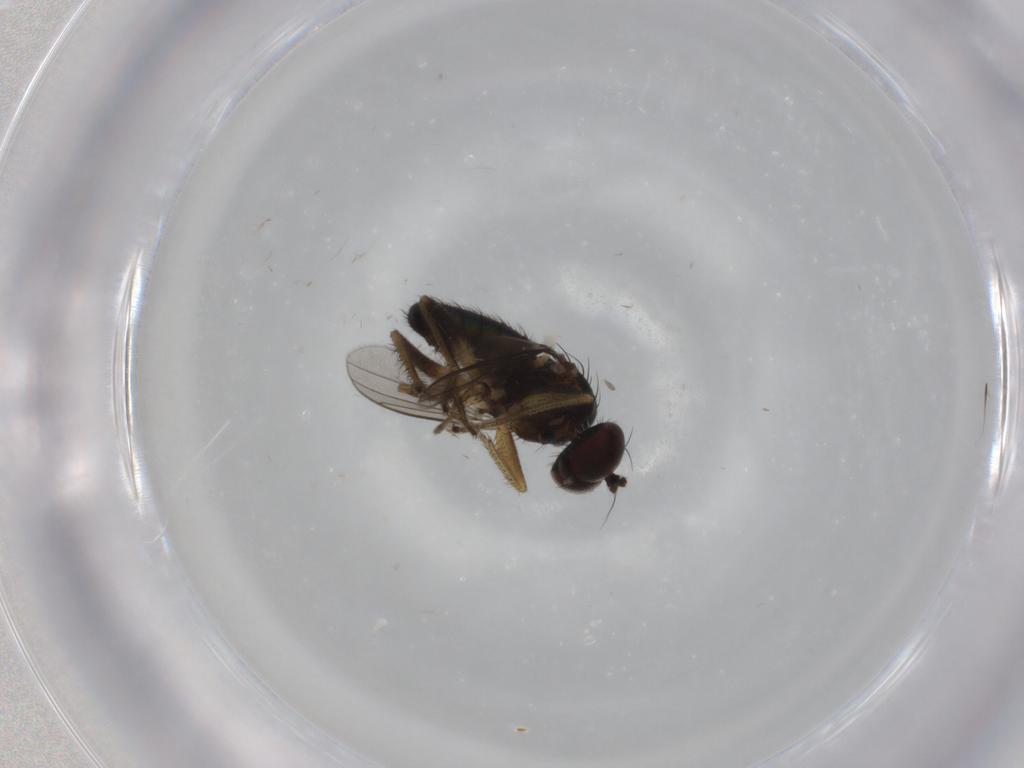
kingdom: Animalia
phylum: Arthropoda
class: Insecta
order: Diptera
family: Dolichopodidae
